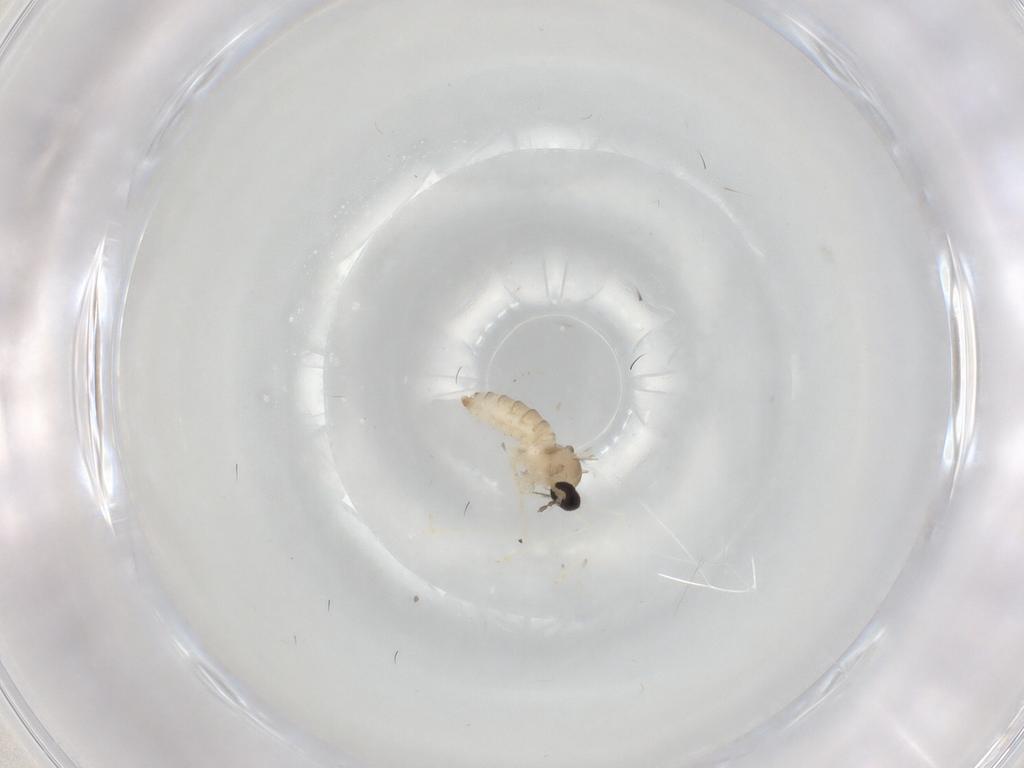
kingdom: Animalia
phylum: Arthropoda
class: Insecta
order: Diptera
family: Cecidomyiidae
